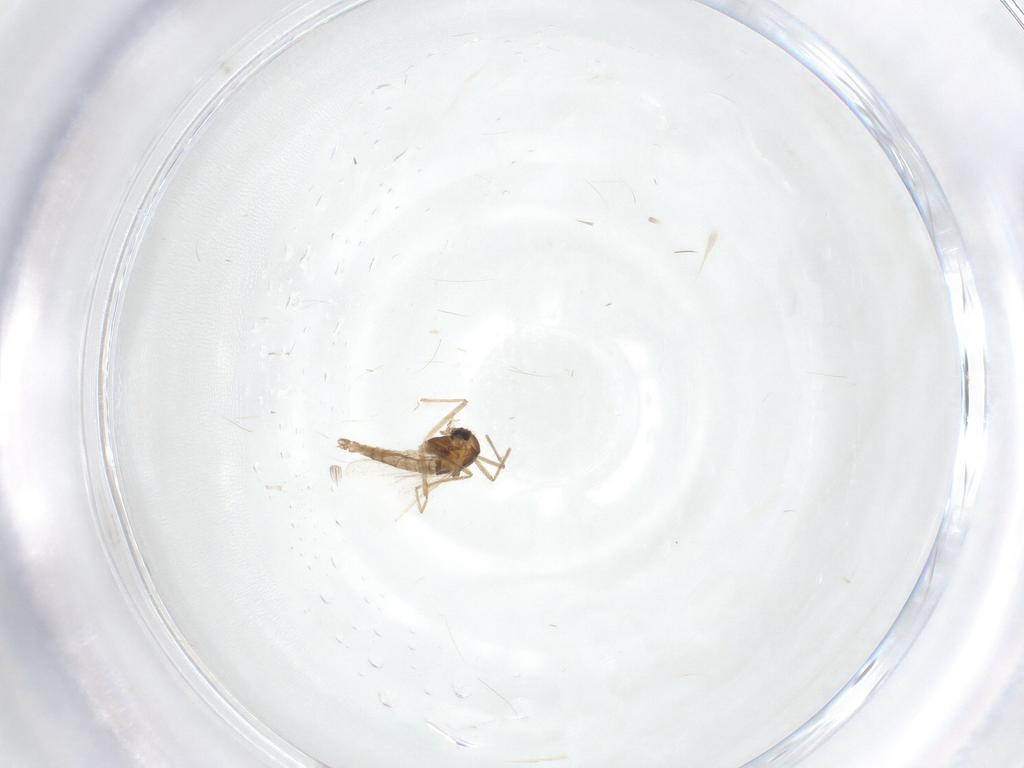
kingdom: Animalia
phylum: Arthropoda
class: Insecta
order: Diptera
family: Chironomidae
